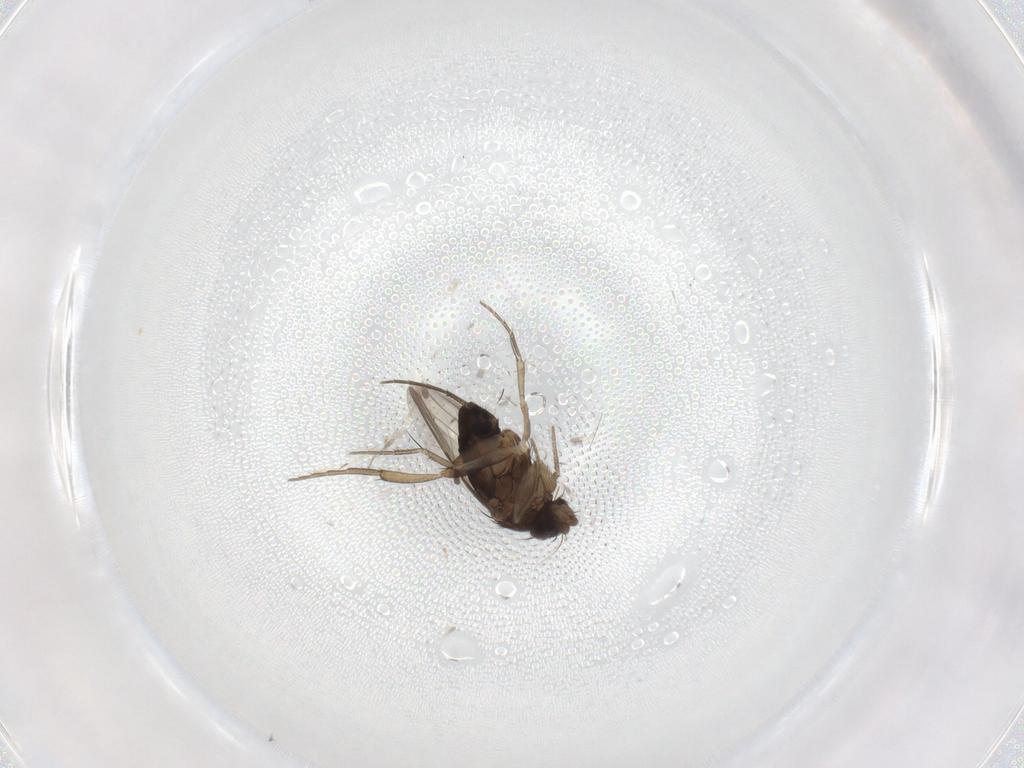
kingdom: Animalia
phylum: Arthropoda
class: Insecta
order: Diptera
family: Phoridae
